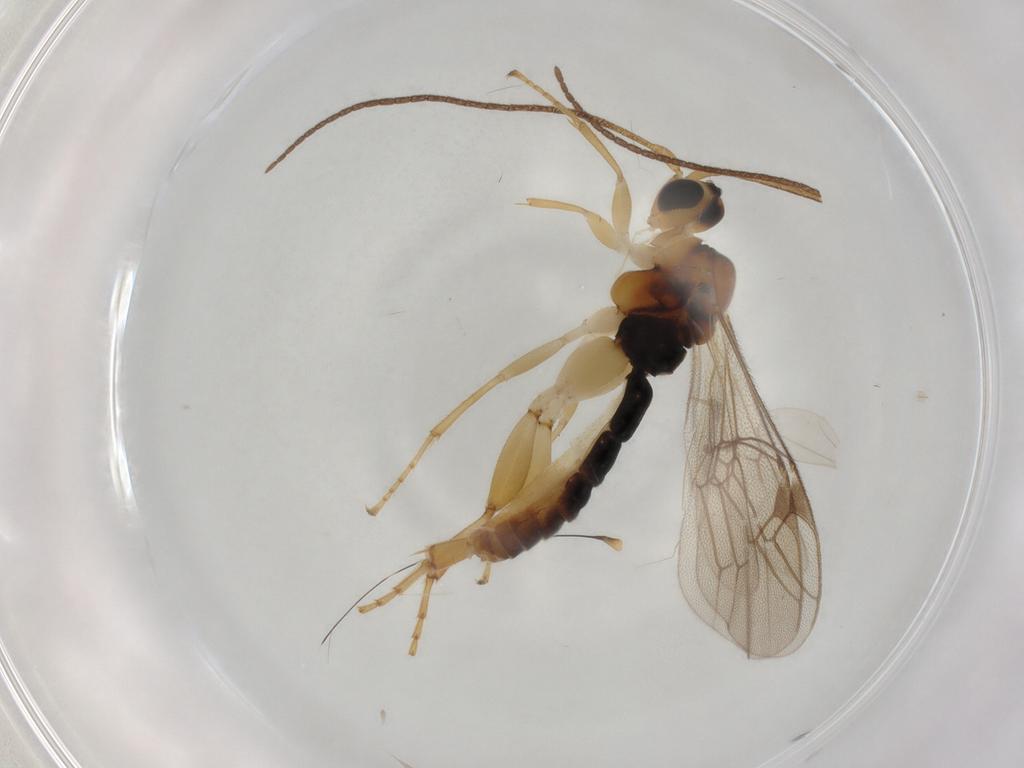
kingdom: Animalia
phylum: Arthropoda
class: Insecta
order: Hymenoptera
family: Ichneumonidae
